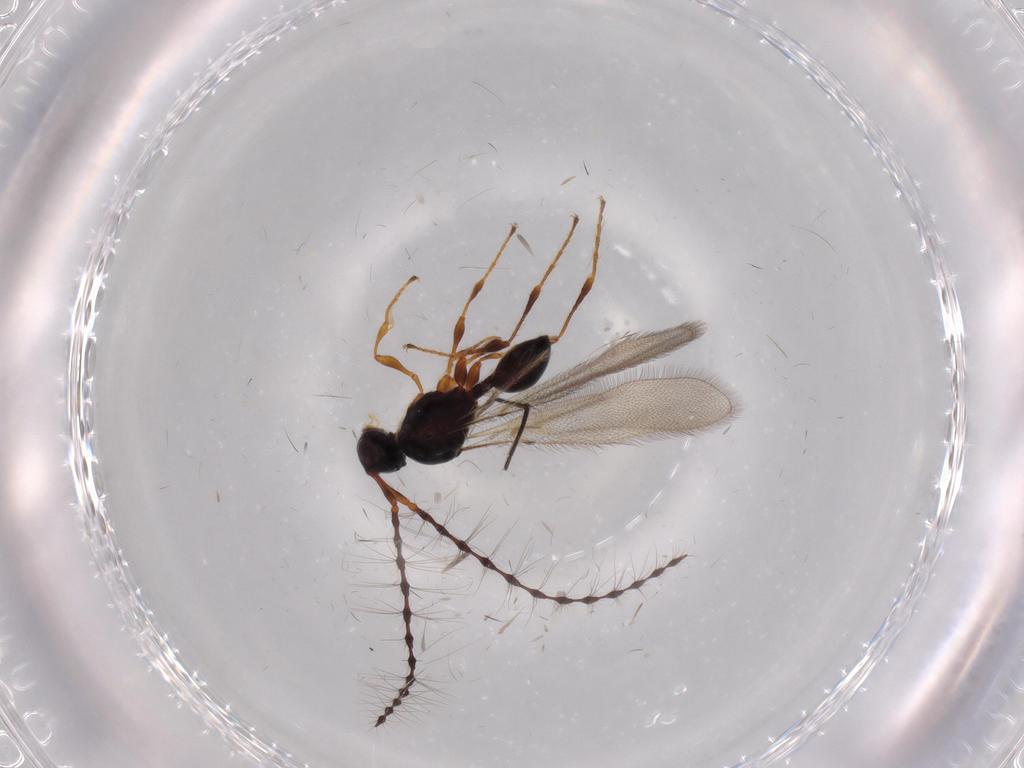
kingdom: Animalia
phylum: Arthropoda
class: Insecta
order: Hymenoptera
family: Diapriidae
